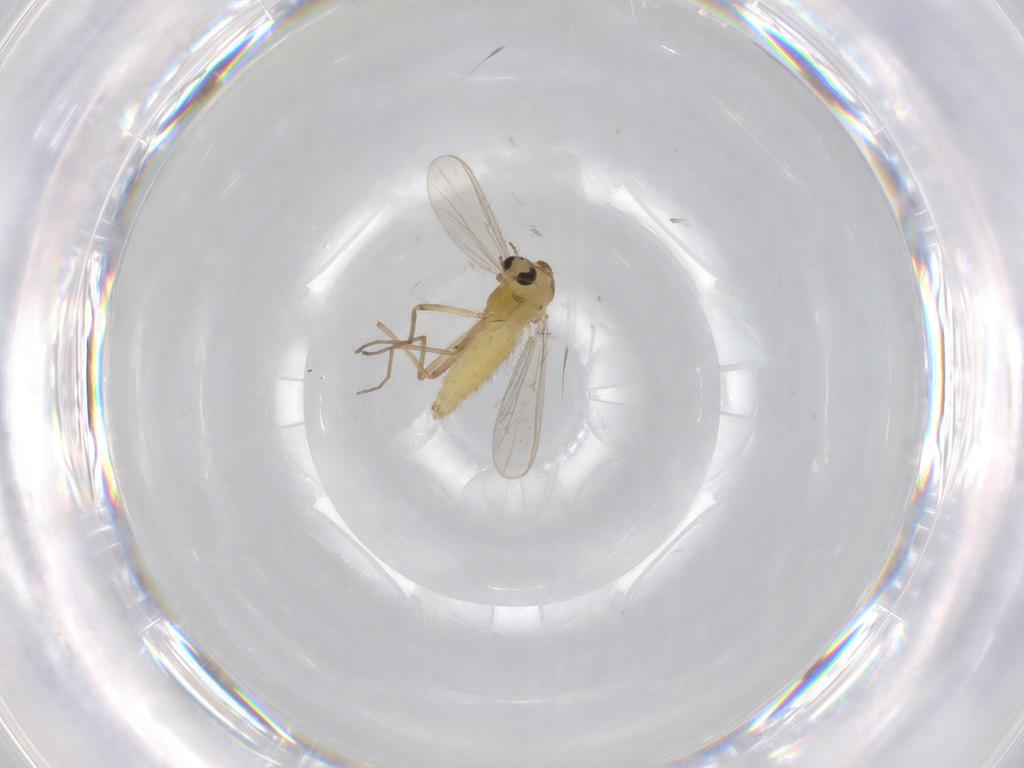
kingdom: Animalia
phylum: Arthropoda
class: Insecta
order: Diptera
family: Chironomidae
